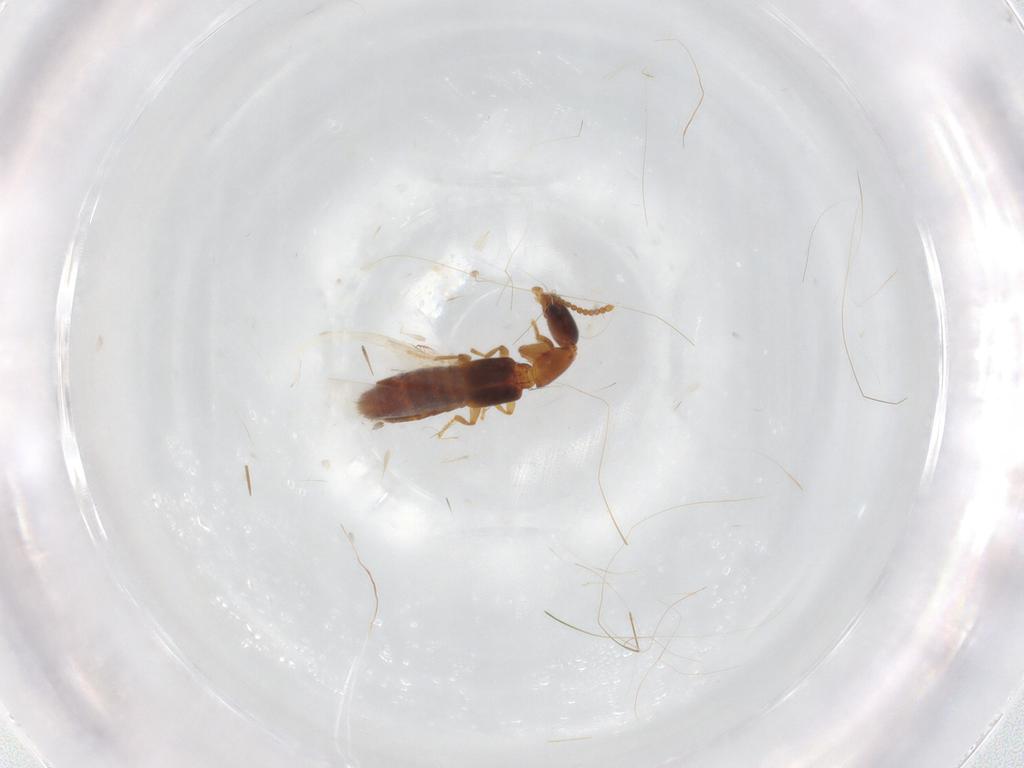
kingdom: Animalia
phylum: Arthropoda
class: Insecta
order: Coleoptera
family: Staphylinidae
